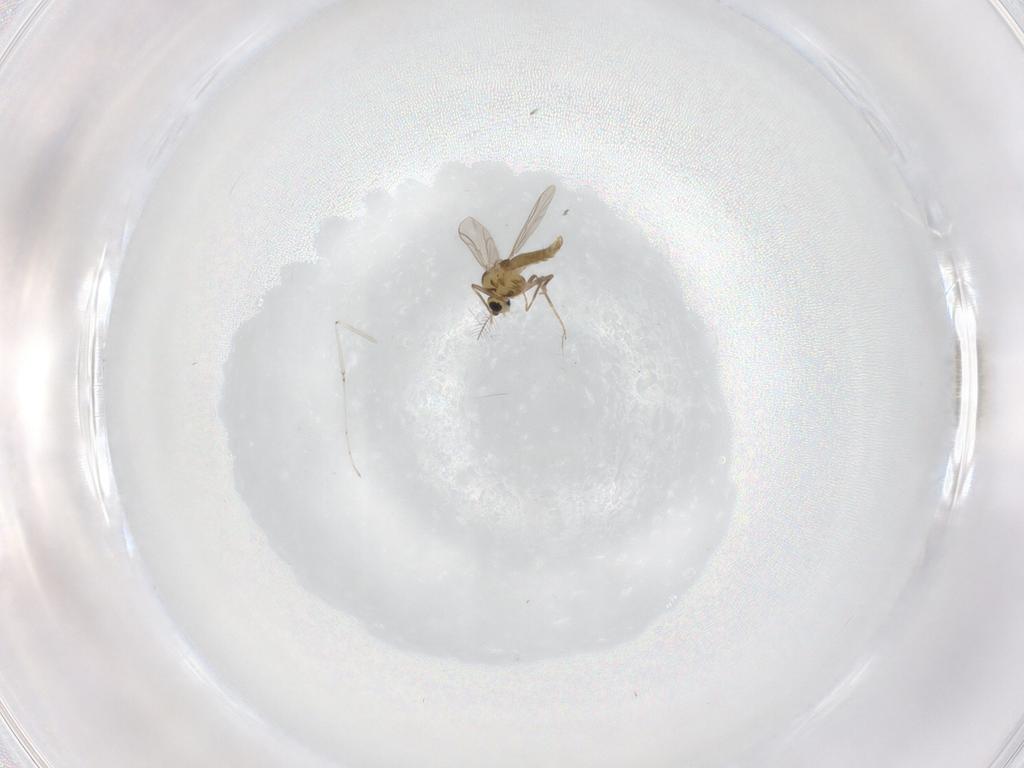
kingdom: Animalia
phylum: Arthropoda
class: Insecta
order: Diptera
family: Chironomidae
